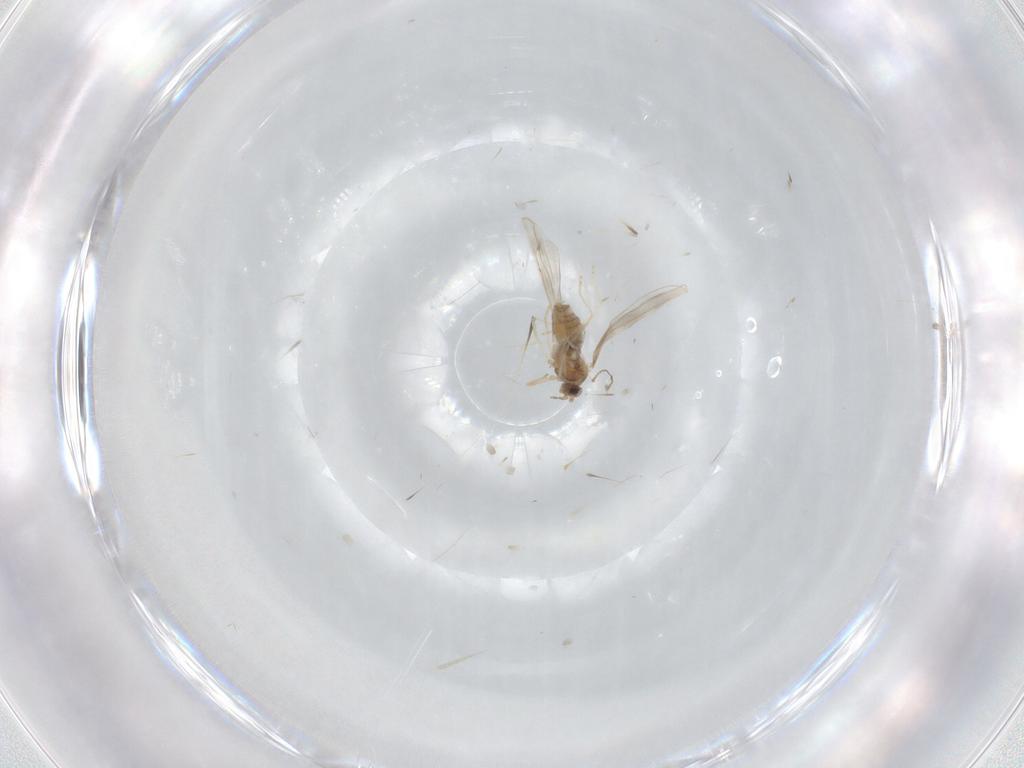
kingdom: Animalia
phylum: Arthropoda
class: Insecta
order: Diptera
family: Cecidomyiidae
